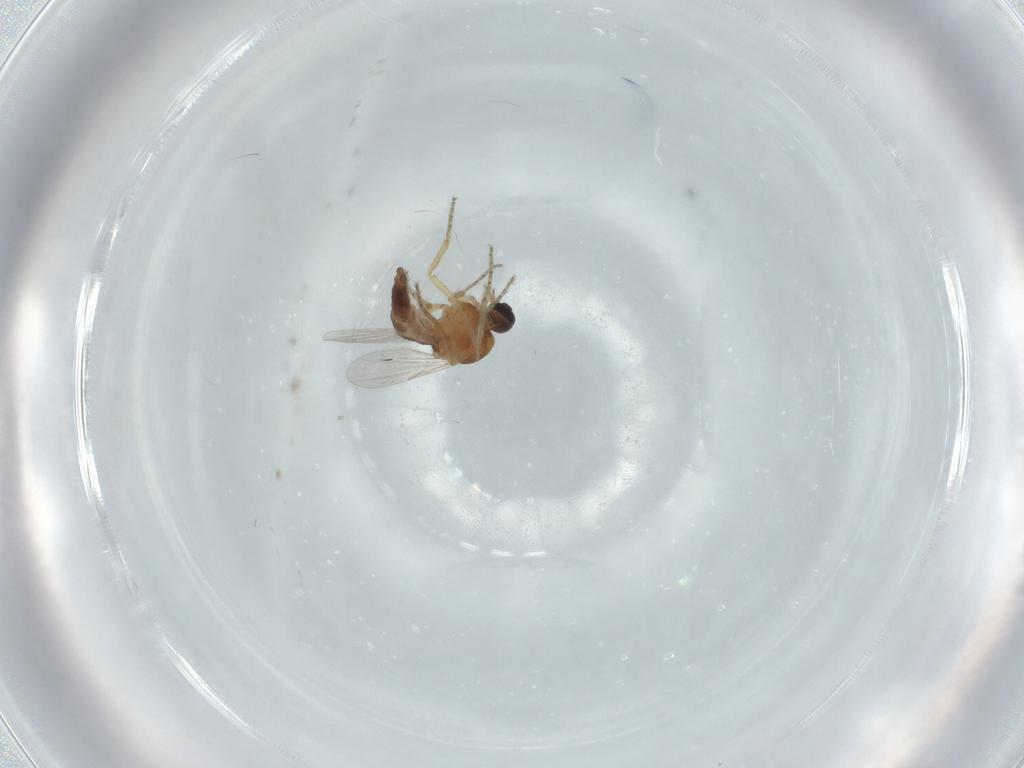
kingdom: Animalia
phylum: Arthropoda
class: Insecta
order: Diptera
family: Ceratopogonidae
